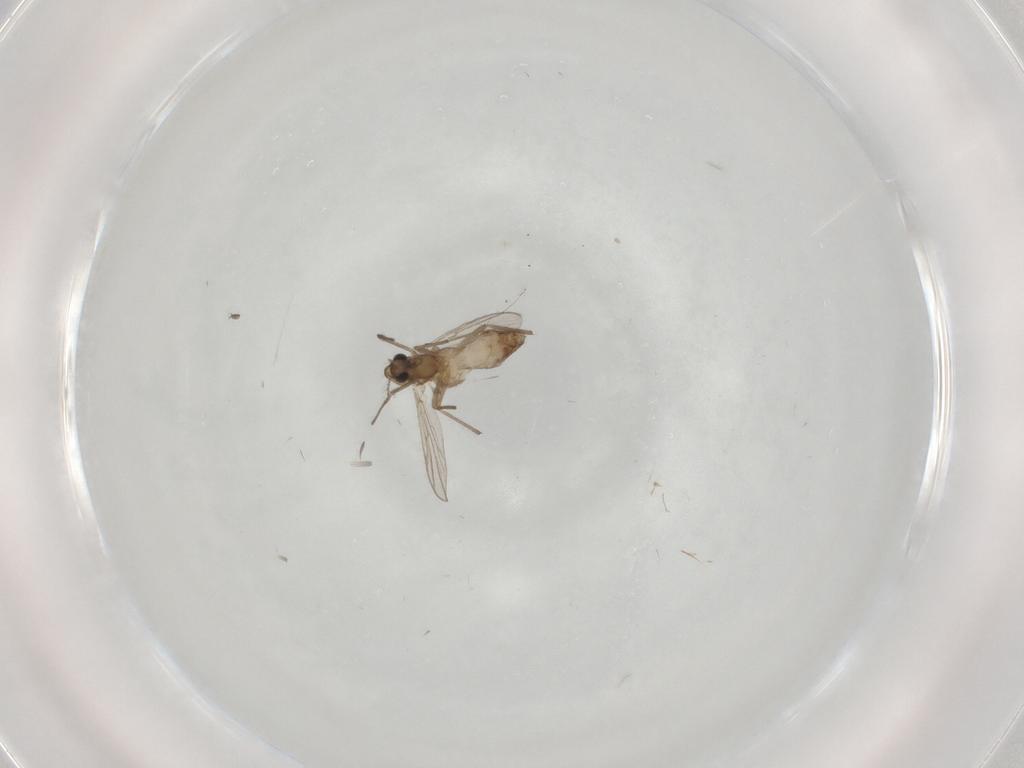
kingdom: Animalia
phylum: Arthropoda
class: Insecta
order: Diptera
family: Chironomidae
